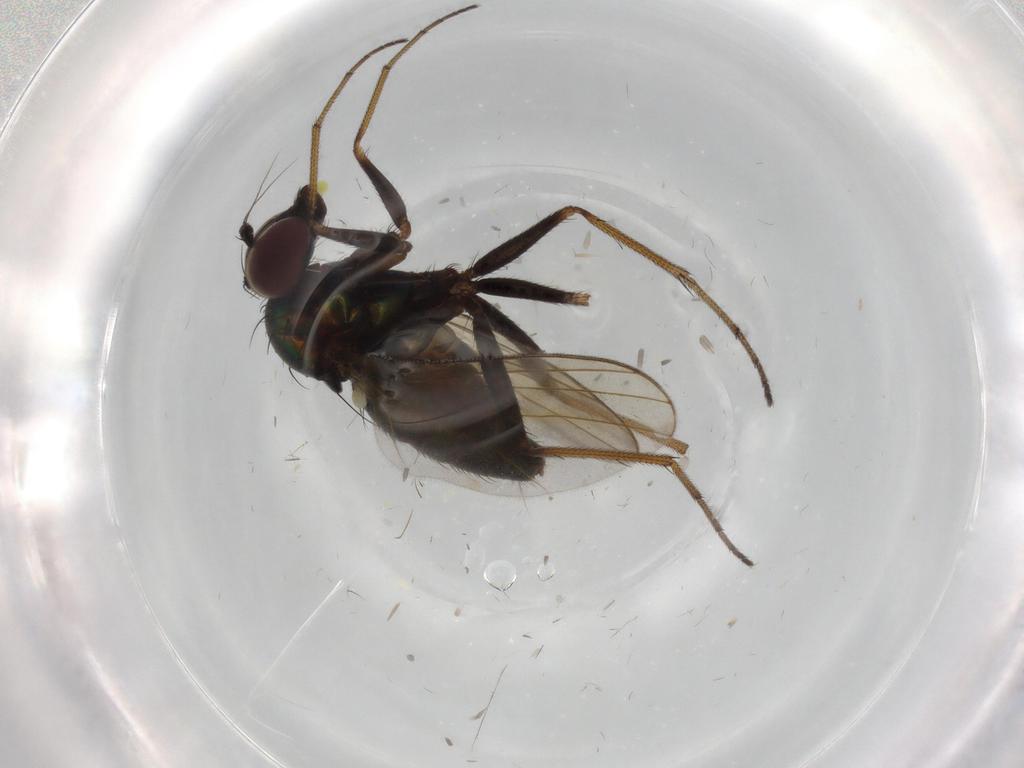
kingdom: Animalia
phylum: Arthropoda
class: Insecta
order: Diptera
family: Dolichopodidae
